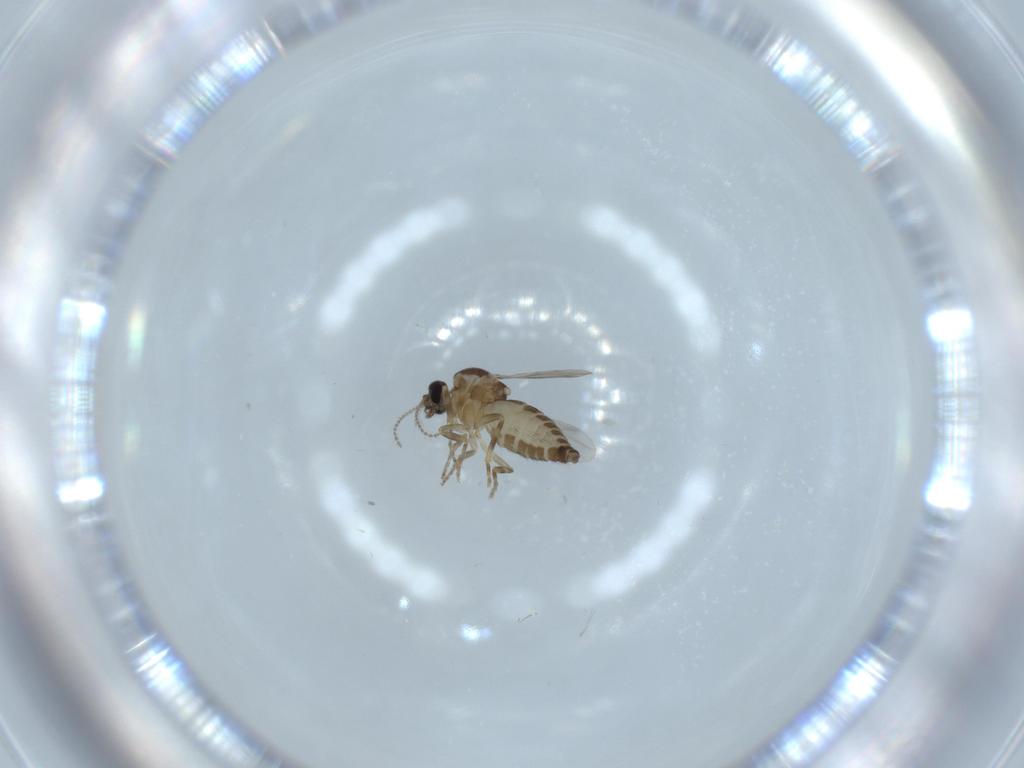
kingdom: Animalia
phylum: Arthropoda
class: Insecta
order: Diptera
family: Ceratopogonidae
